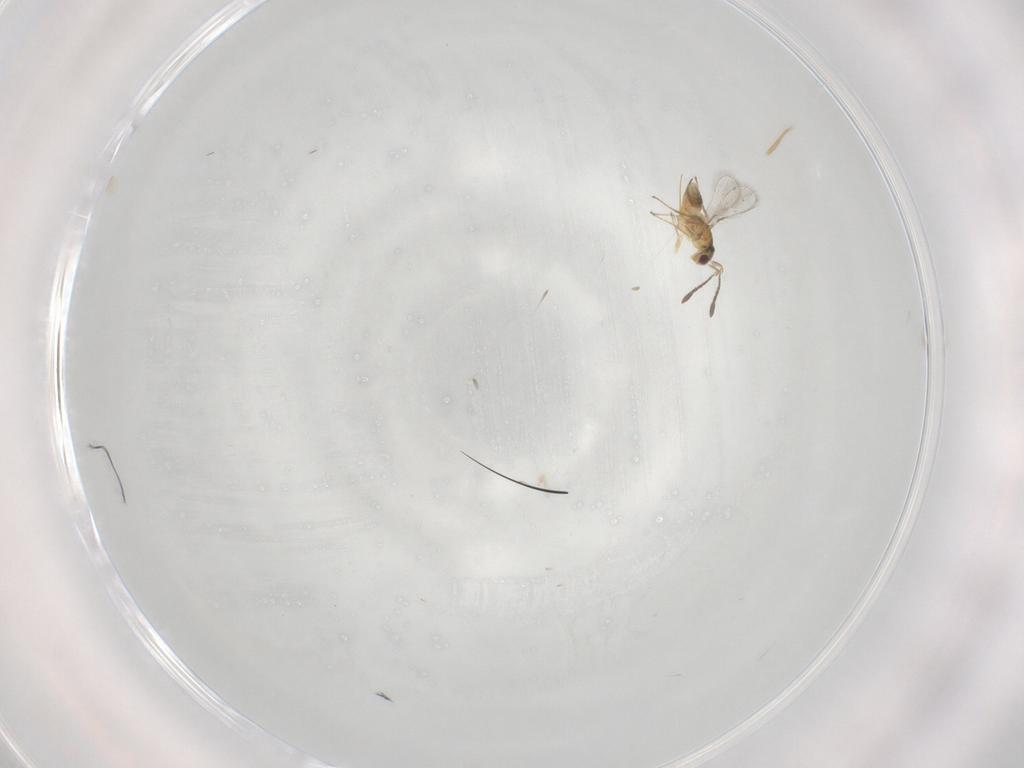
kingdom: Animalia
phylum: Arthropoda
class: Insecta
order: Hymenoptera
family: Mymaridae
